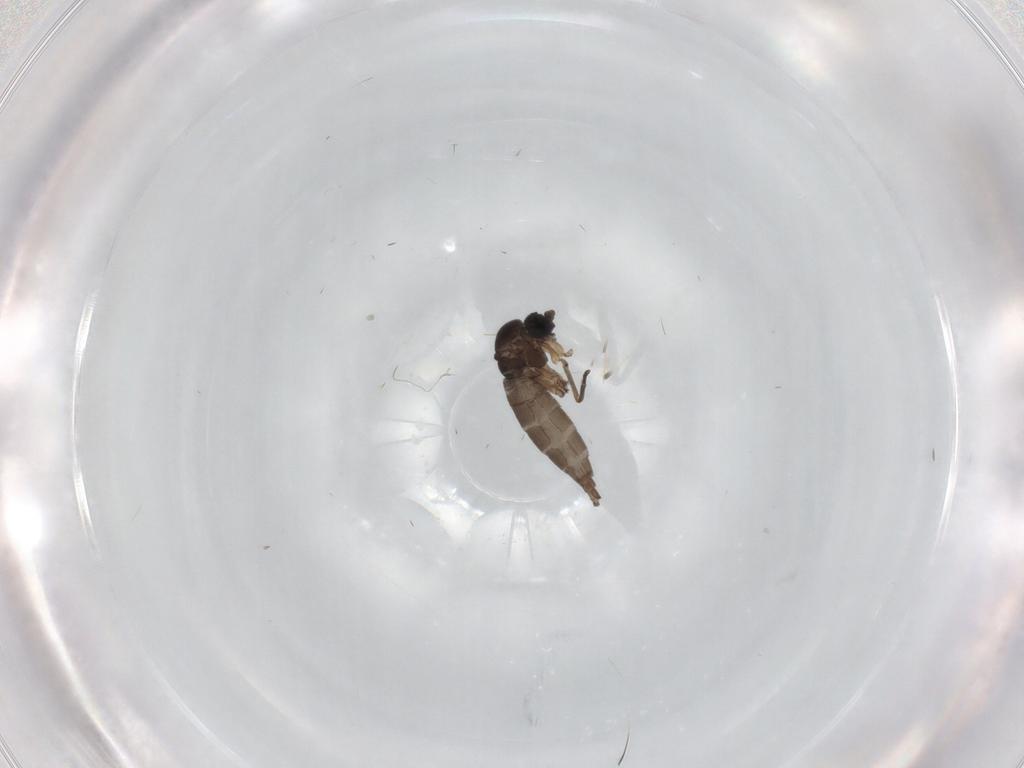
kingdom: Animalia
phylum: Arthropoda
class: Insecta
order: Diptera
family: Sciaridae
